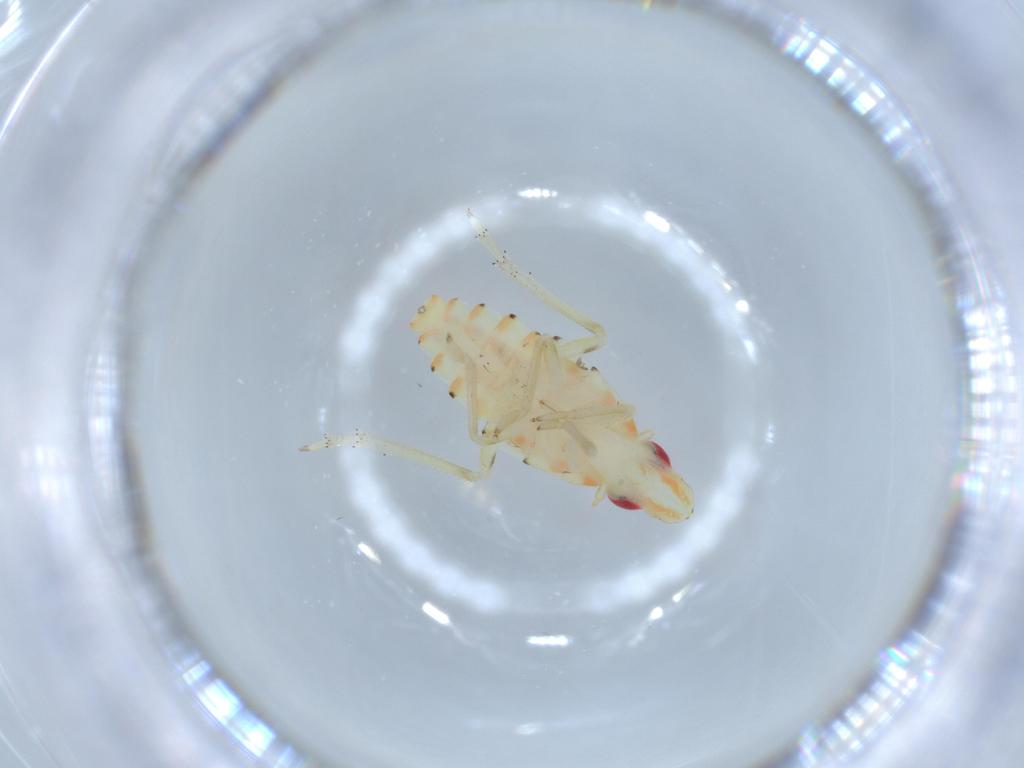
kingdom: Animalia
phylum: Arthropoda
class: Insecta
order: Hemiptera
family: Tropiduchidae
